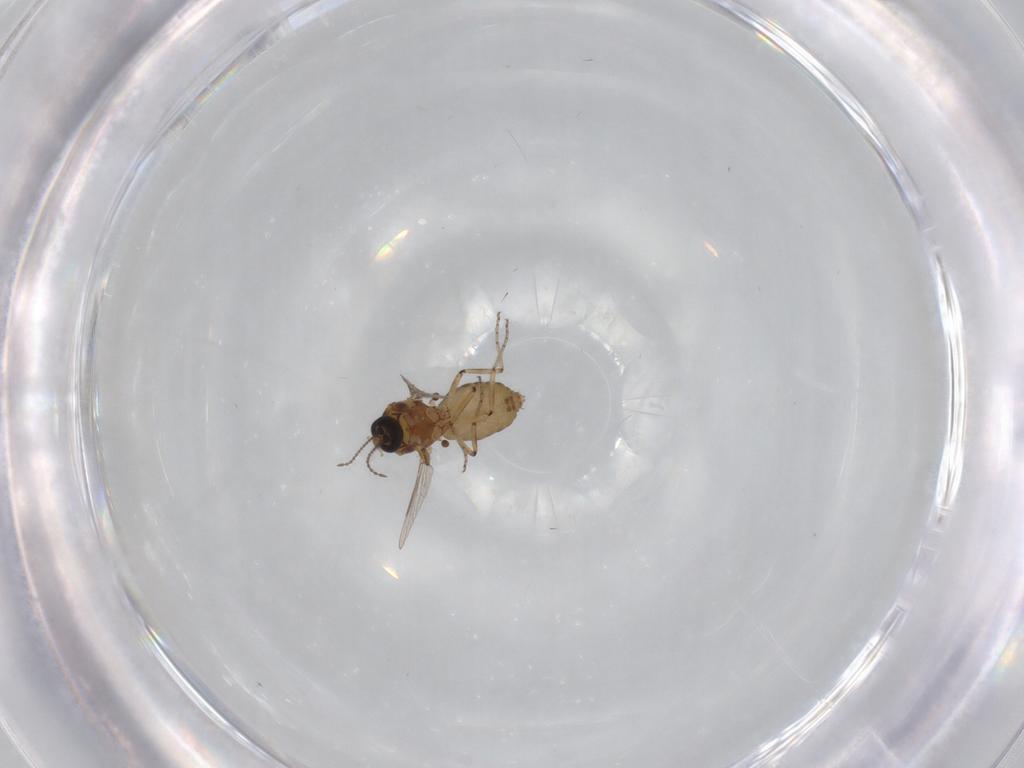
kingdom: Animalia
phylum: Arthropoda
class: Insecta
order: Diptera
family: Ceratopogonidae
